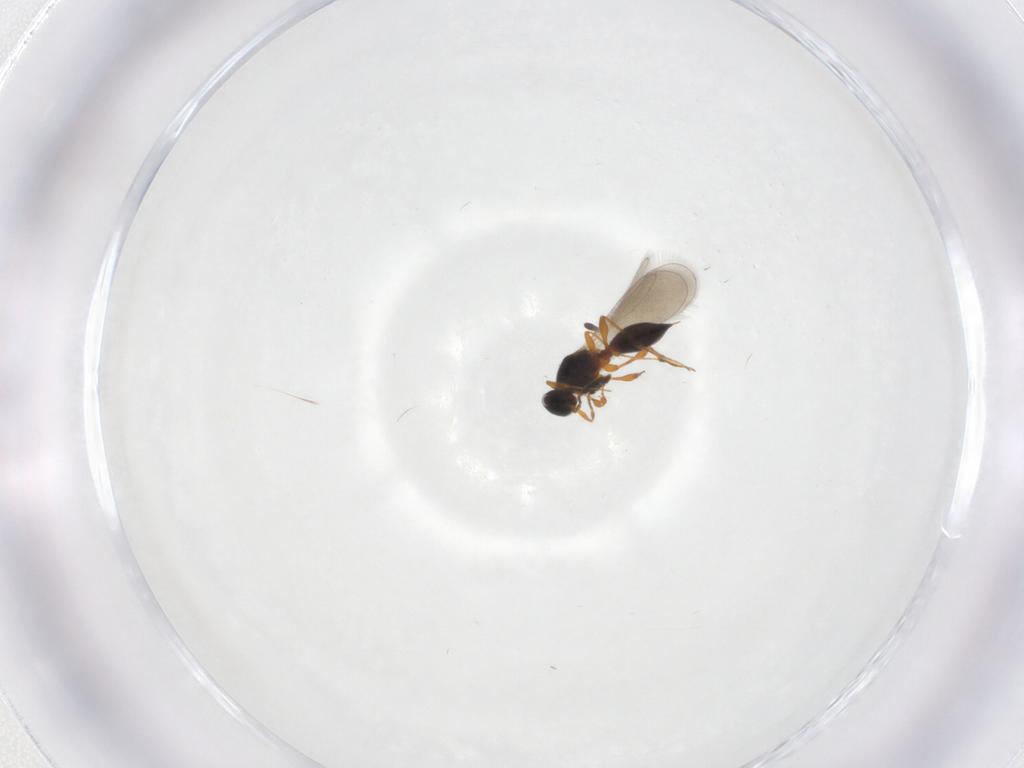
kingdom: Animalia
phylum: Arthropoda
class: Insecta
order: Hymenoptera
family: Platygastridae
